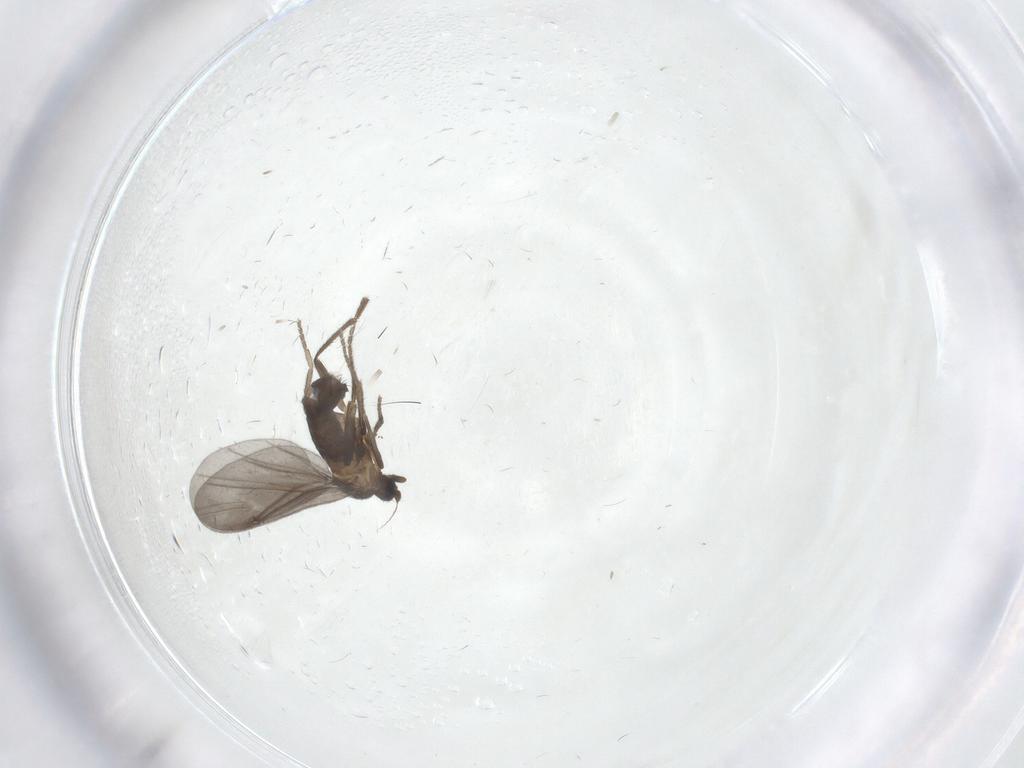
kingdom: Animalia
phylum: Arthropoda
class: Insecta
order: Diptera
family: Phoridae
